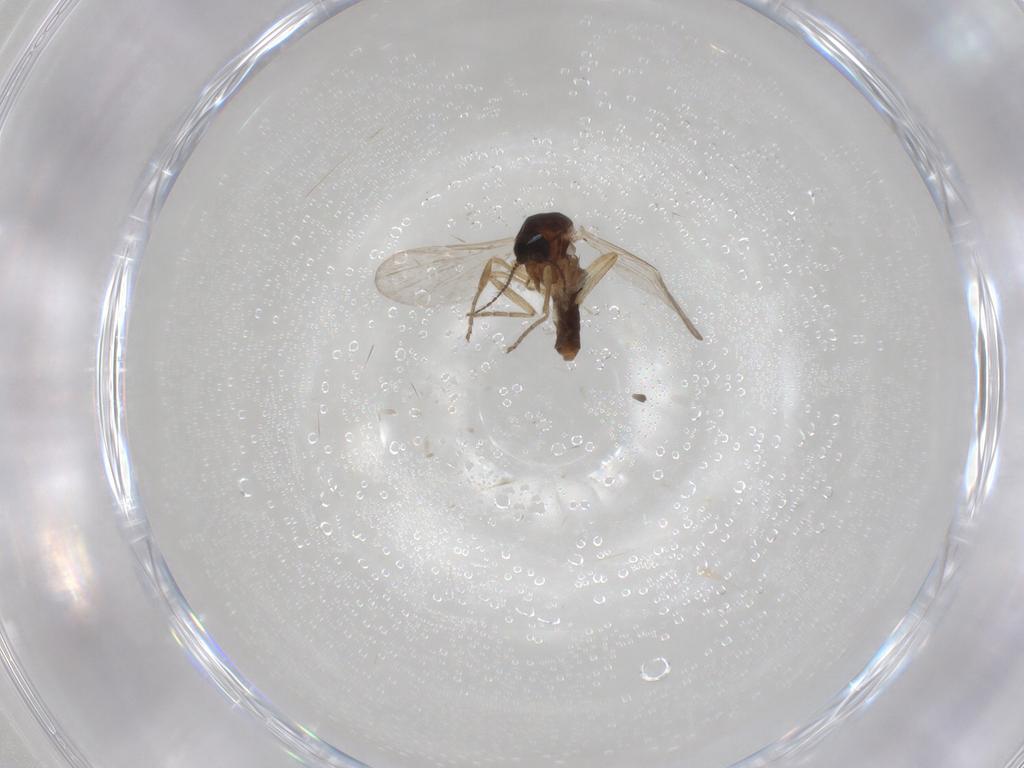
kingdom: Animalia
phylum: Arthropoda
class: Insecta
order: Diptera
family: Ceratopogonidae
